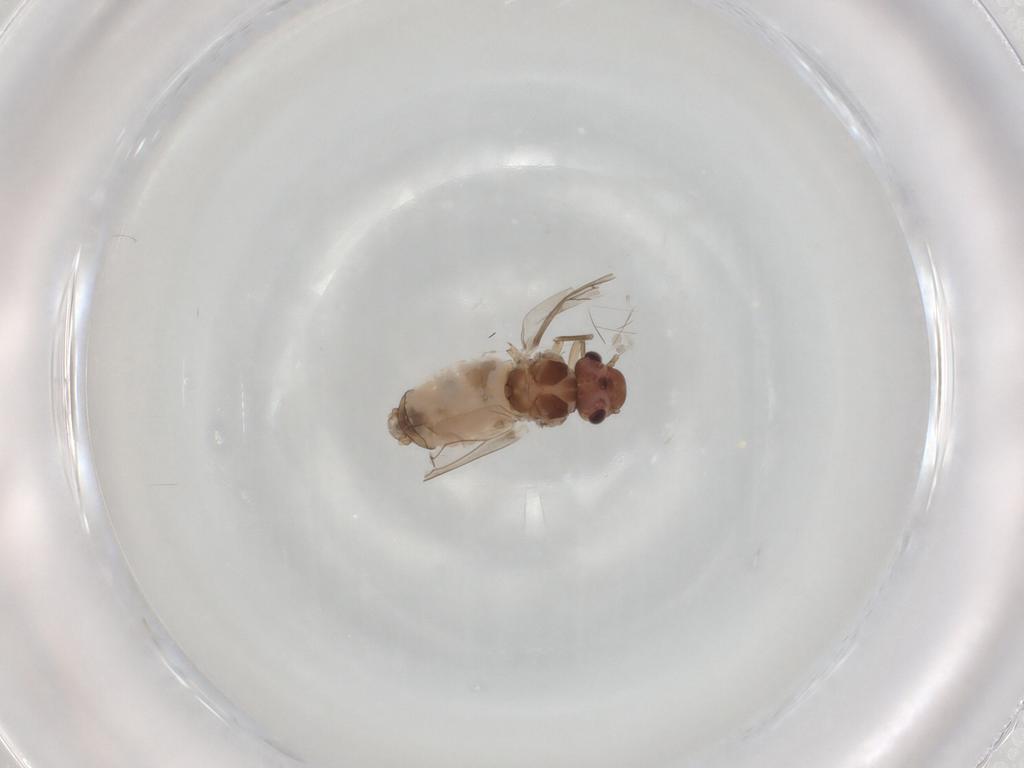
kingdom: Animalia
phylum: Arthropoda
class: Insecta
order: Psocodea
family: Peripsocidae
